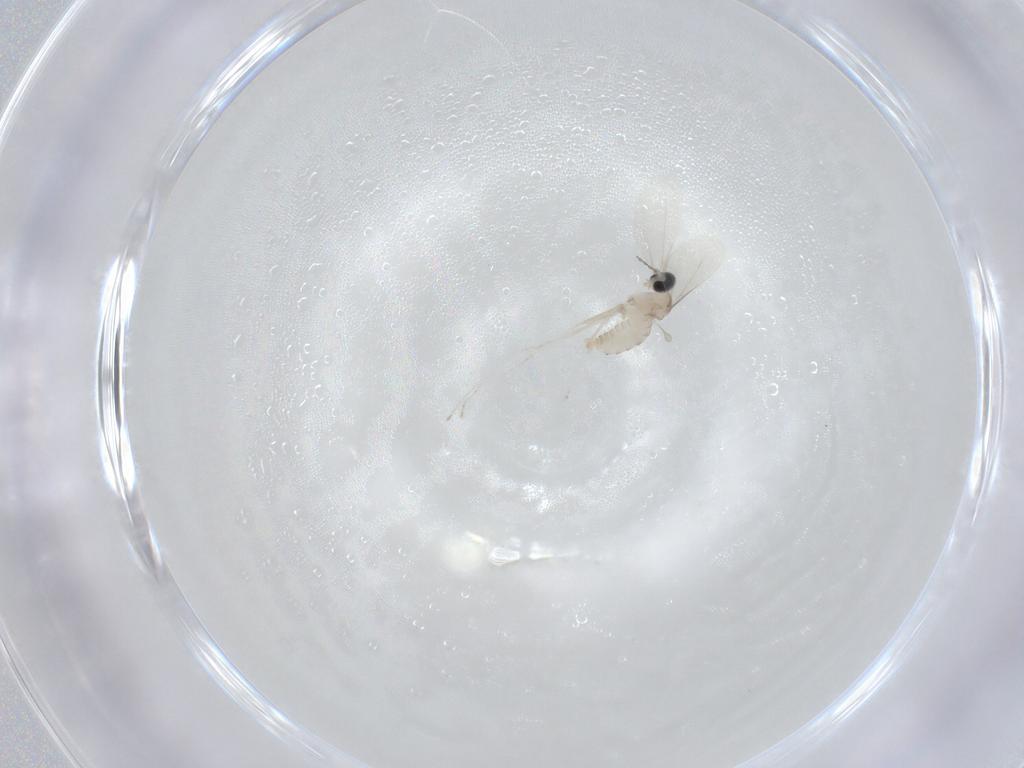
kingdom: Animalia
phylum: Arthropoda
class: Insecta
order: Diptera
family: Cecidomyiidae
